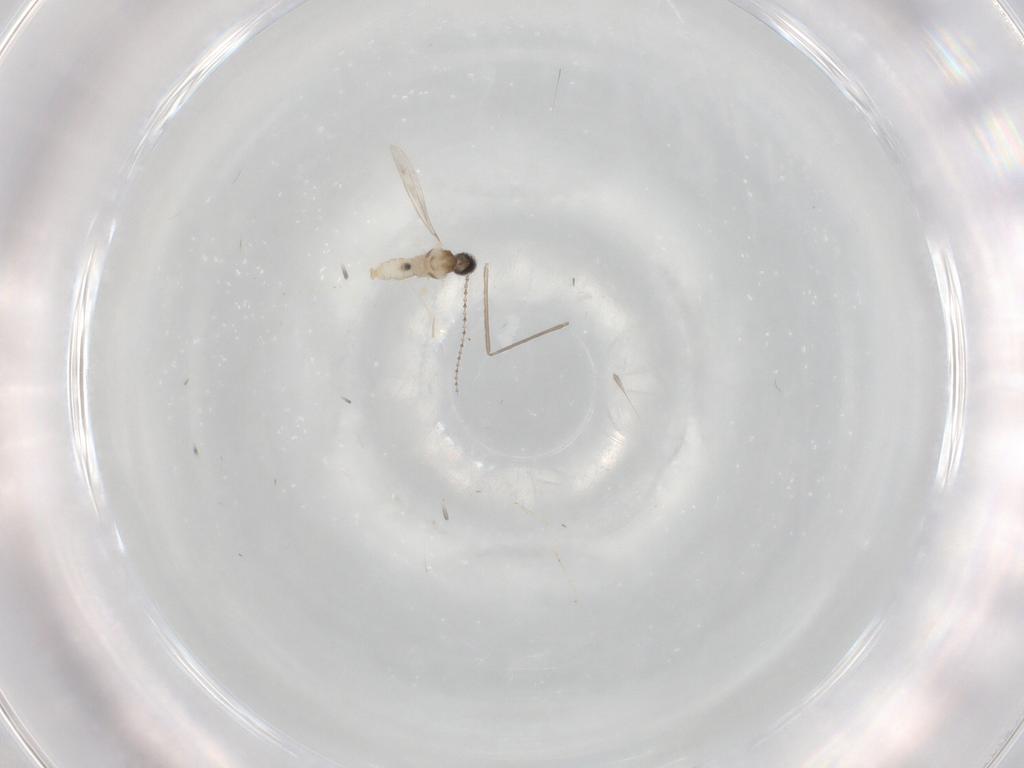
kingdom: Animalia
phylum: Arthropoda
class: Insecta
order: Diptera
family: Cecidomyiidae
